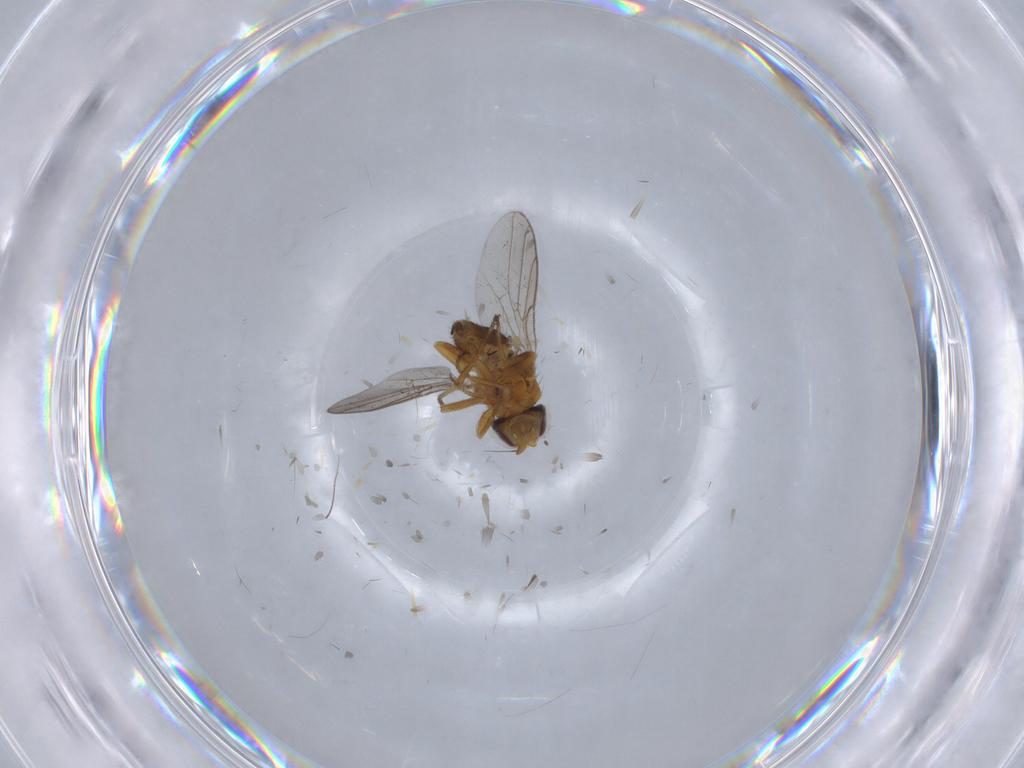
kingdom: Animalia
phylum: Arthropoda
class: Insecta
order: Diptera
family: Chloropidae
